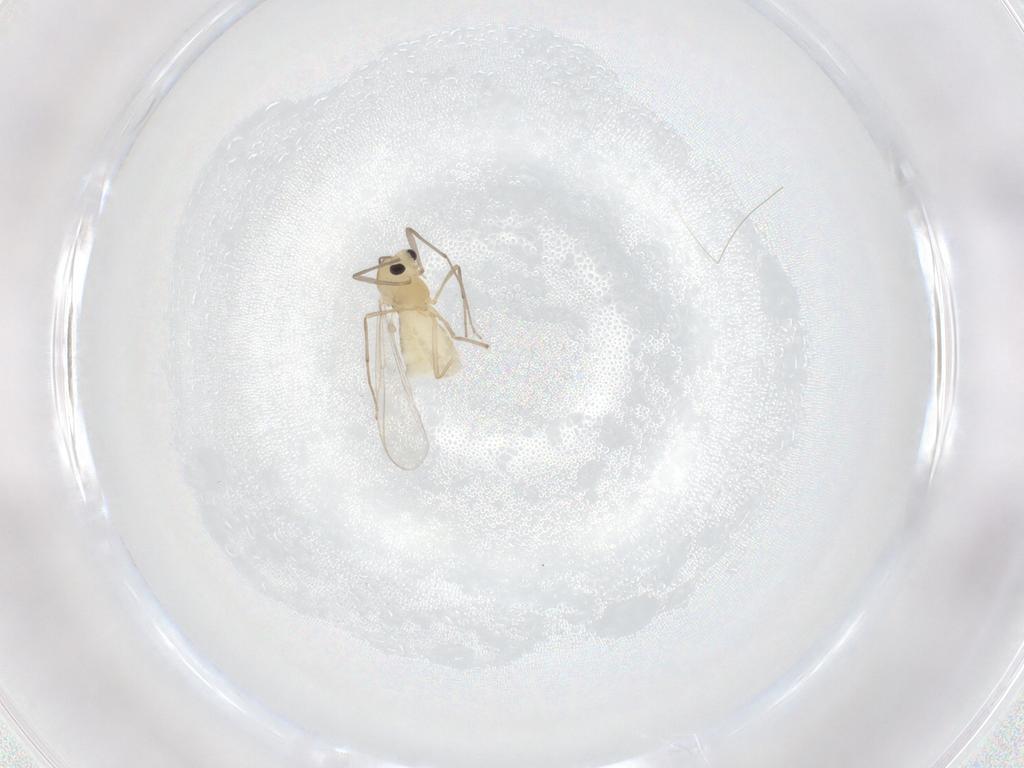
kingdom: Animalia
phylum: Arthropoda
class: Insecta
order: Diptera
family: Chironomidae
